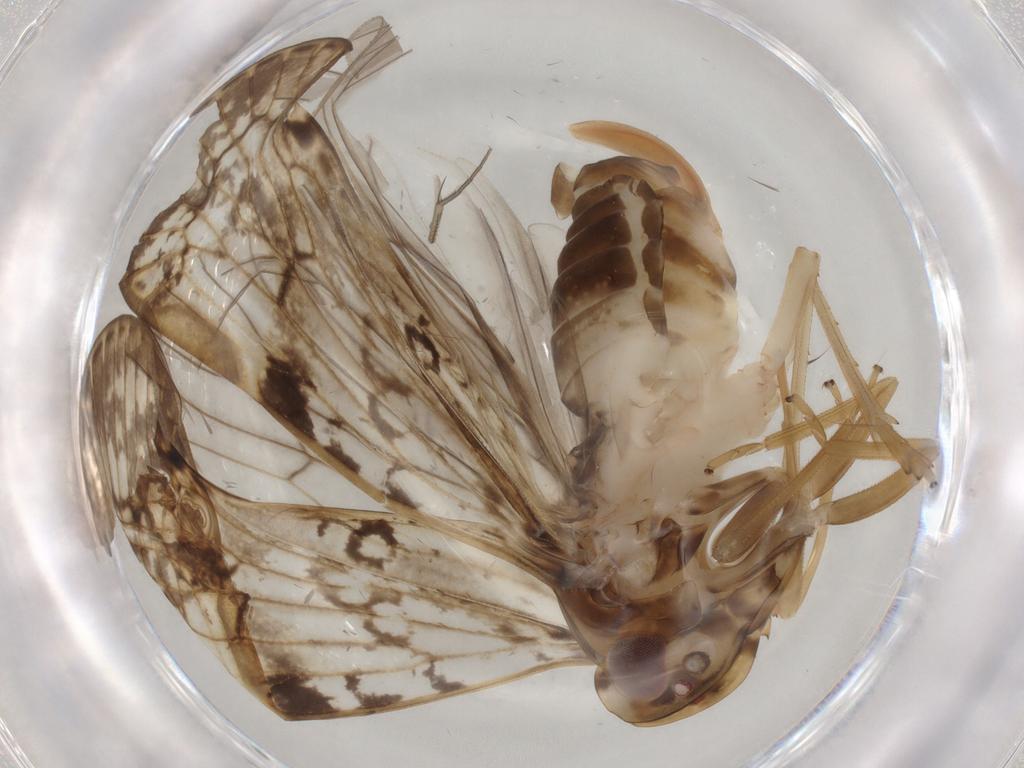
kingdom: Animalia
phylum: Arthropoda
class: Insecta
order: Hemiptera
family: Cixiidae
